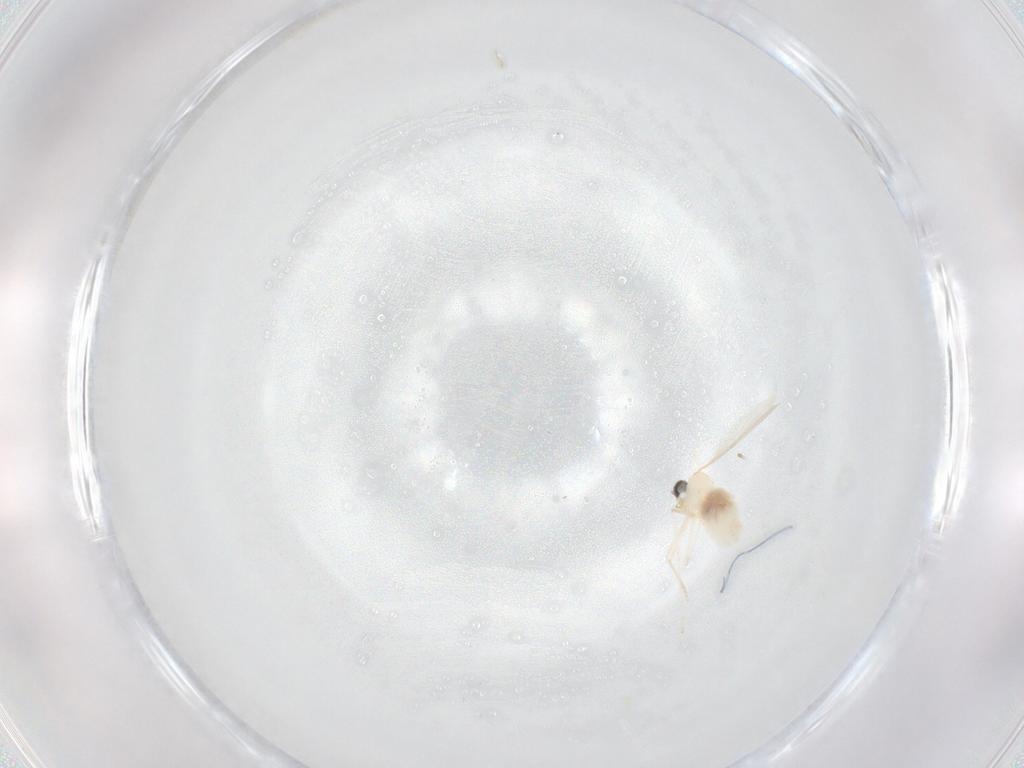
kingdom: Animalia
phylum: Arthropoda
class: Insecta
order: Diptera
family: Cecidomyiidae
